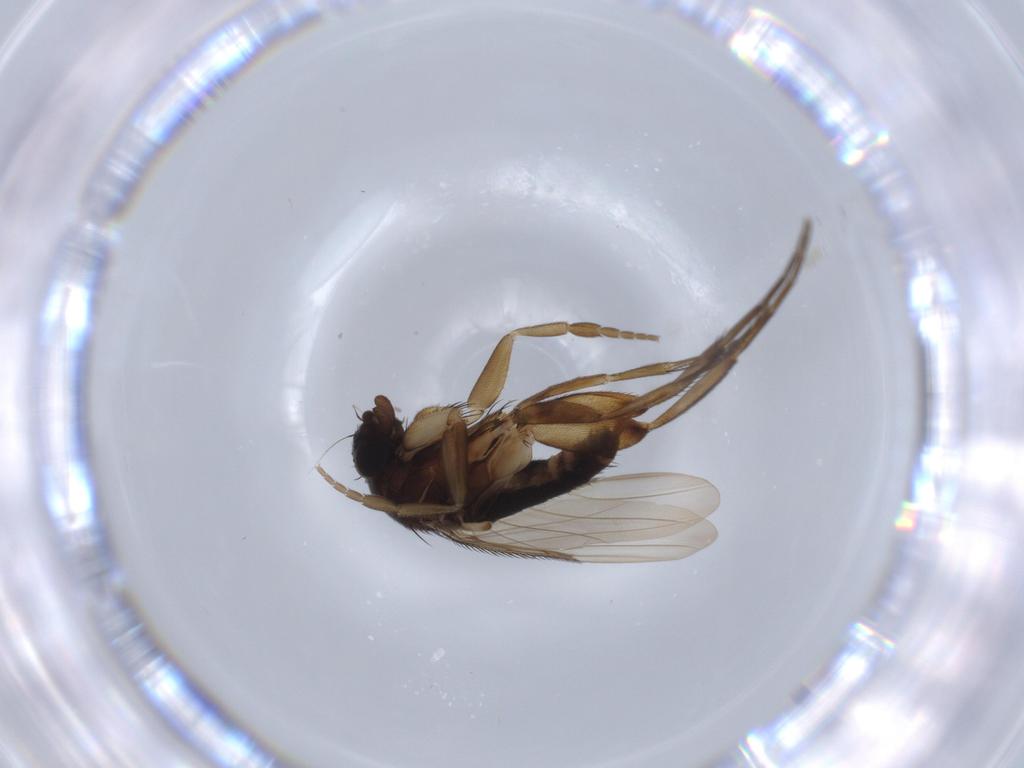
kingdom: Animalia
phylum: Arthropoda
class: Insecta
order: Diptera
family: Phoridae
